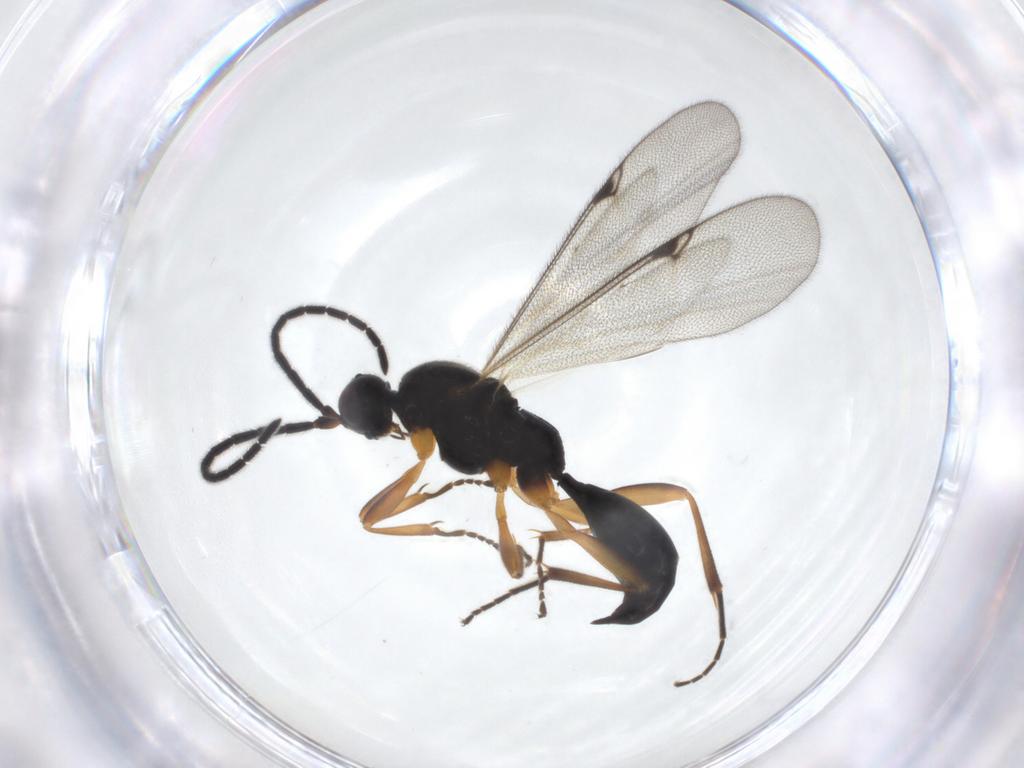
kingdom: Animalia
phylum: Arthropoda
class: Insecta
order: Hymenoptera
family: Proctotrupidae
